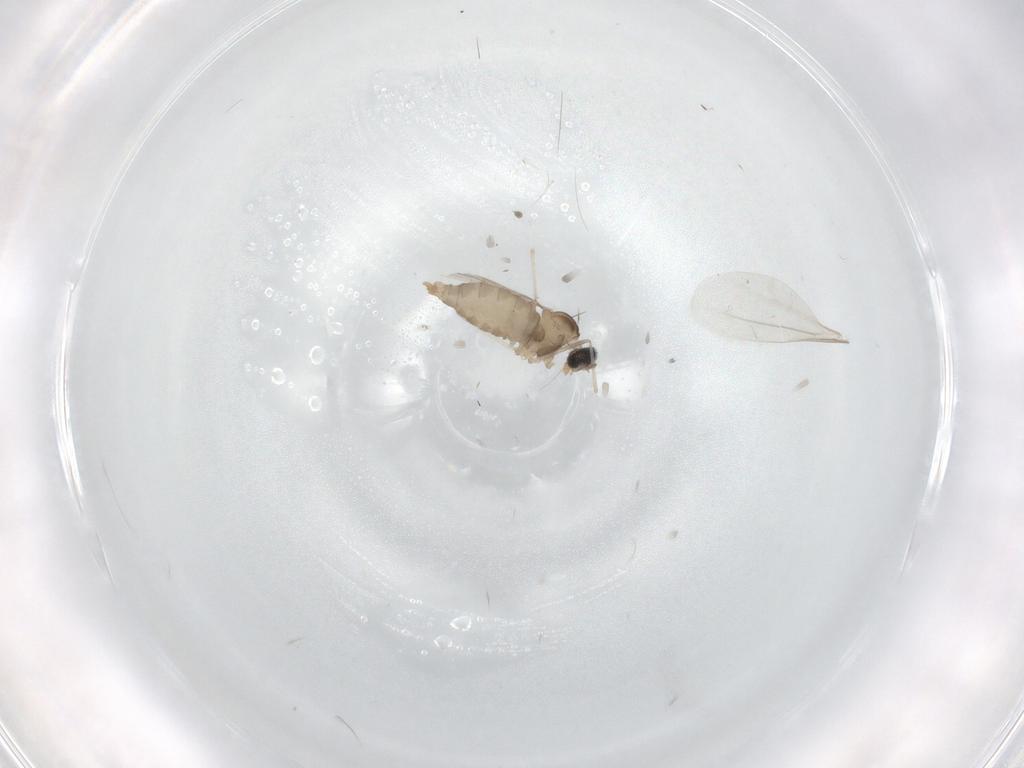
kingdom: Animalia
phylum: Arthropoda
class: Insecta
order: Diptera
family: Cecidomyiidae
